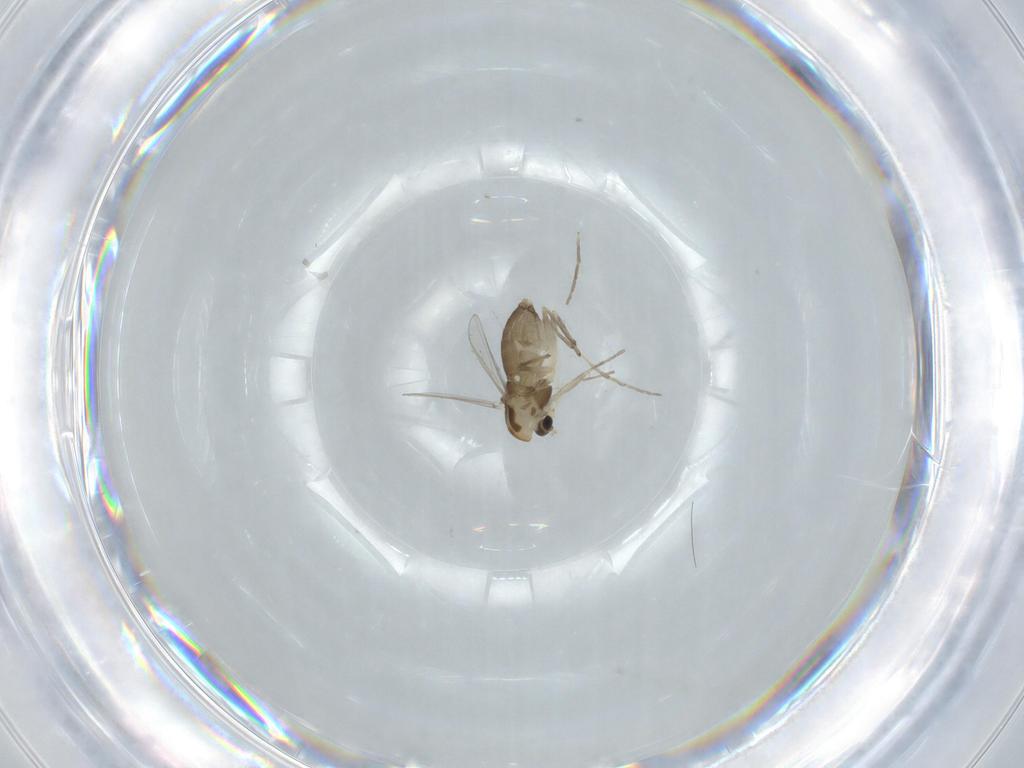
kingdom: Animalia
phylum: Arthropoda
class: Insecta
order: Diptera
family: Chironomidae
